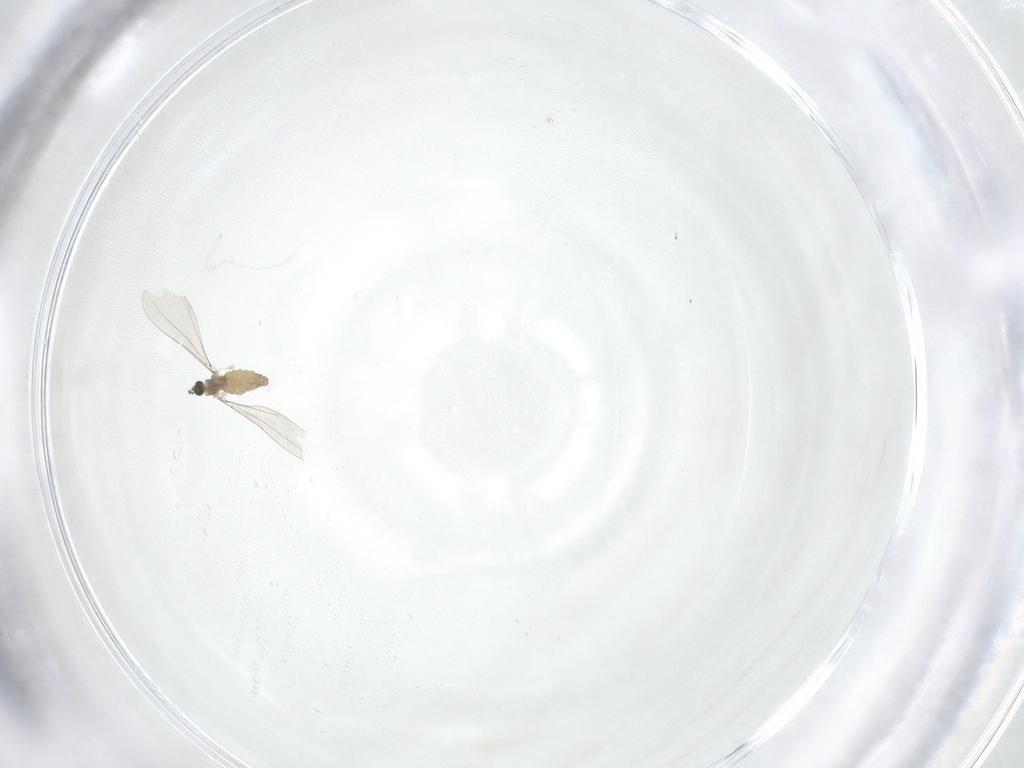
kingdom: Animalia
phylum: Arthropoda
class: Insecta
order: Diptera
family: Cecidomyiidae
